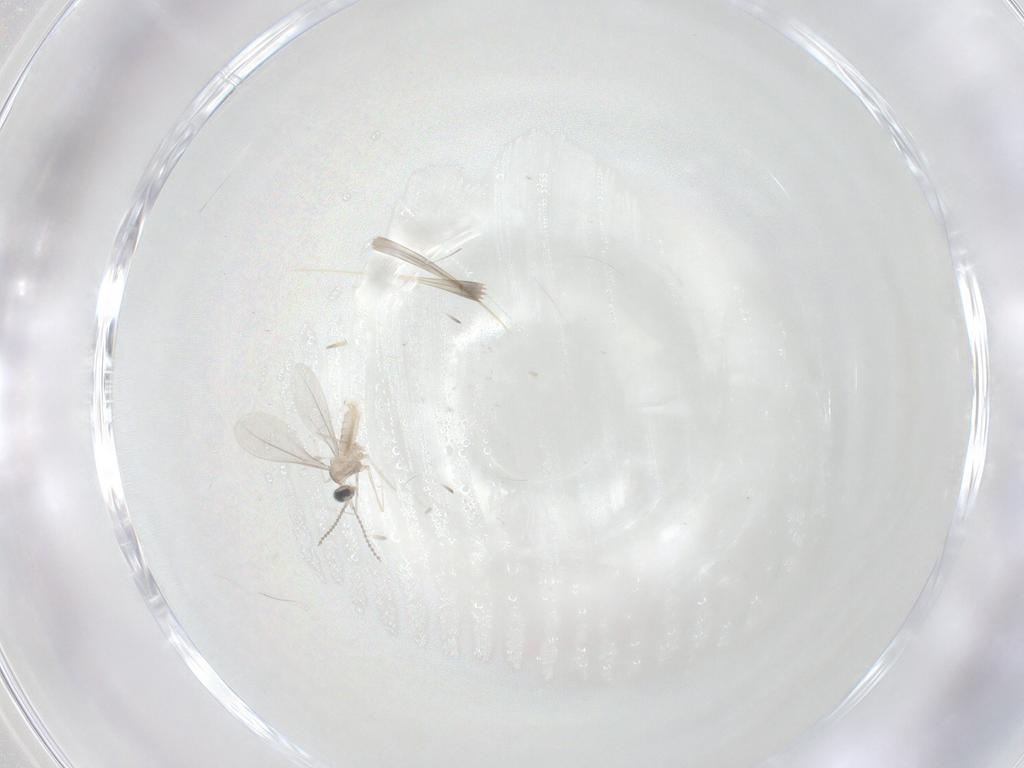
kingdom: Animalia
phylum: Arthropoda
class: Insecta
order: Diptera
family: Cecidomyiidae
